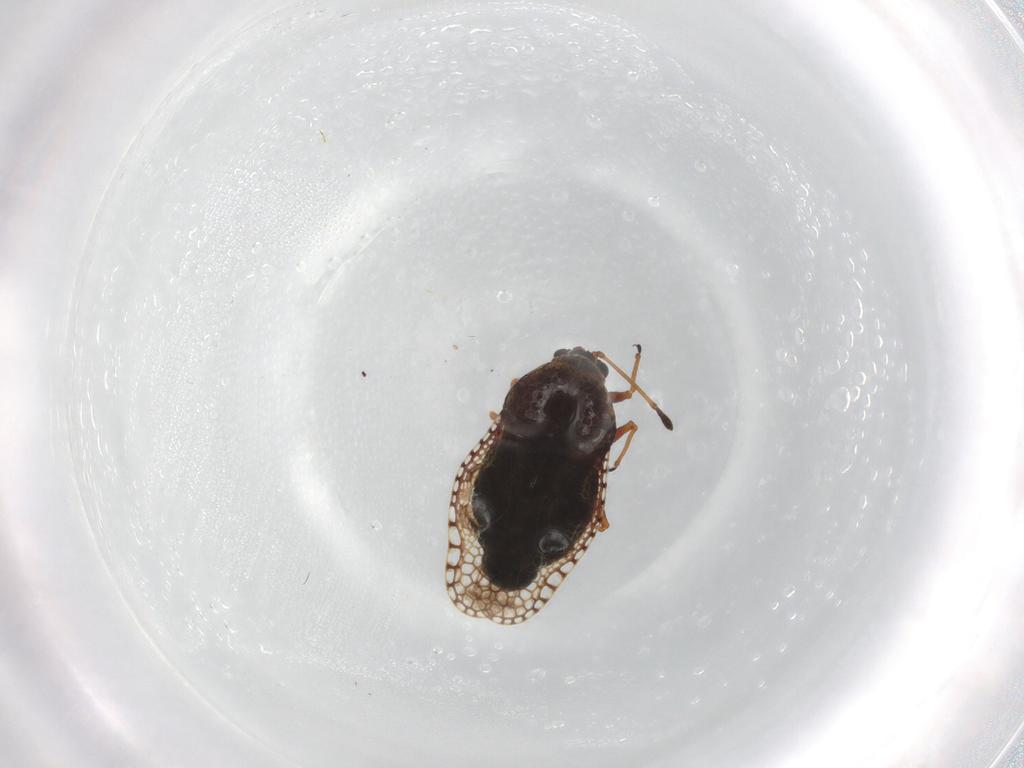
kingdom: Animalia
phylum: Arthropoda
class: Insecta
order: Hemiptera
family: Tingidae
